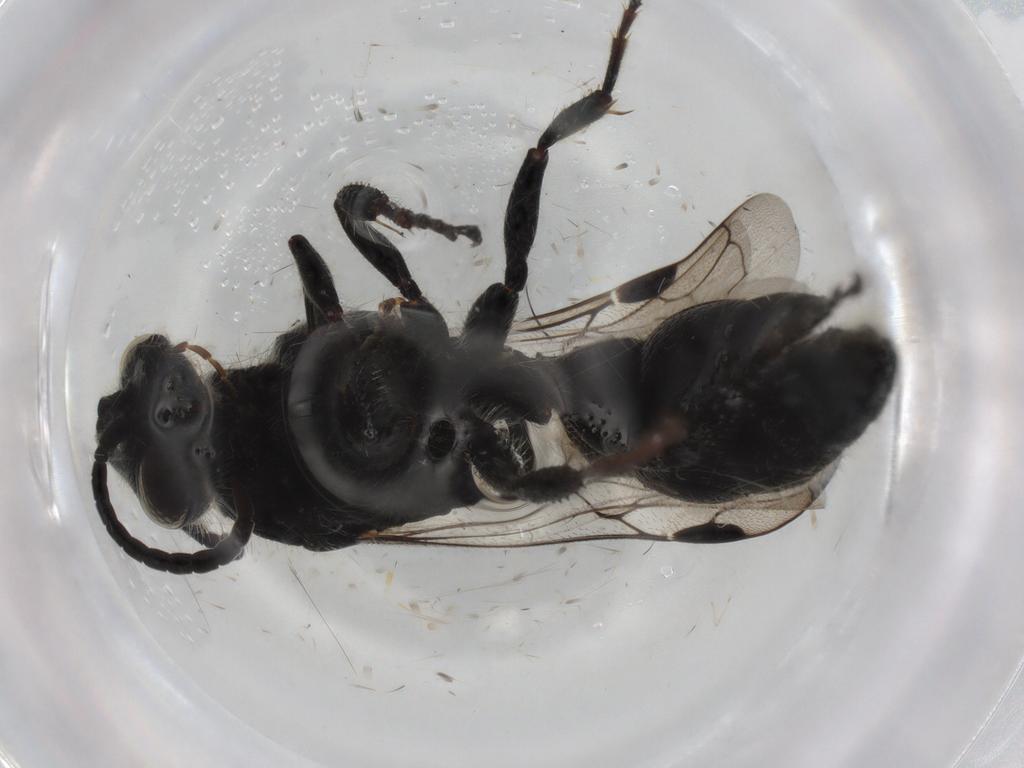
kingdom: Animalia
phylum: Arthropoda
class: Insecta
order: Hymenoptera
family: Tiphiidae
